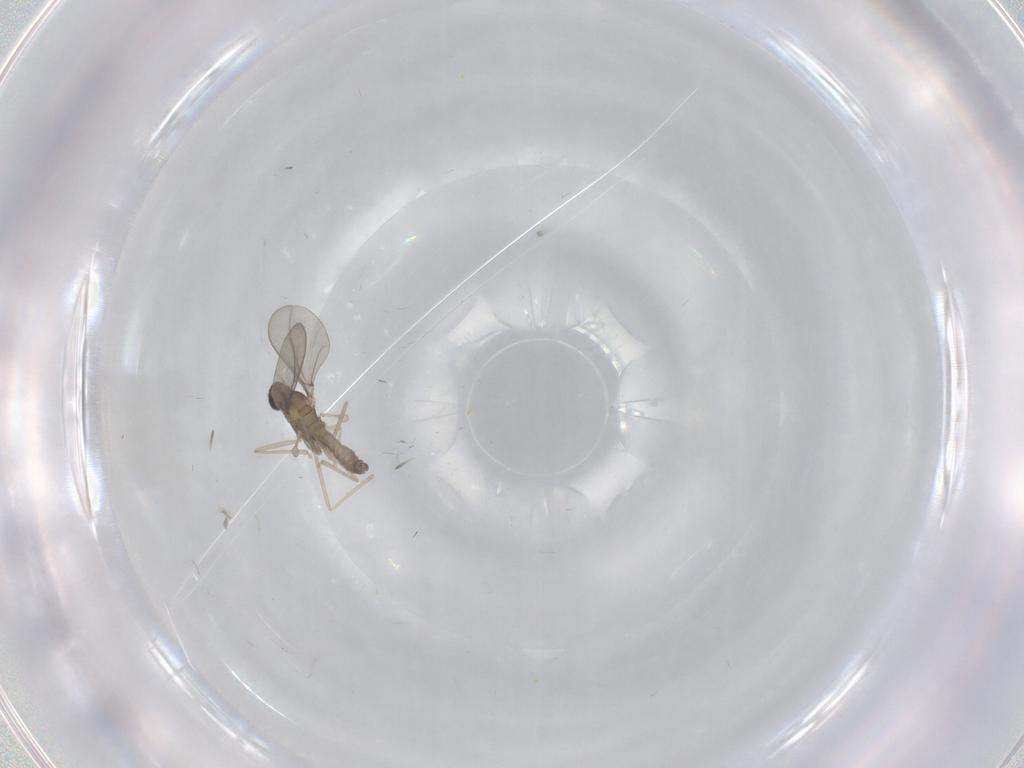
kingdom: Animalia
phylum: Arthropoda
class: Insecta
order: Diptera
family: Cecidomyiidae
